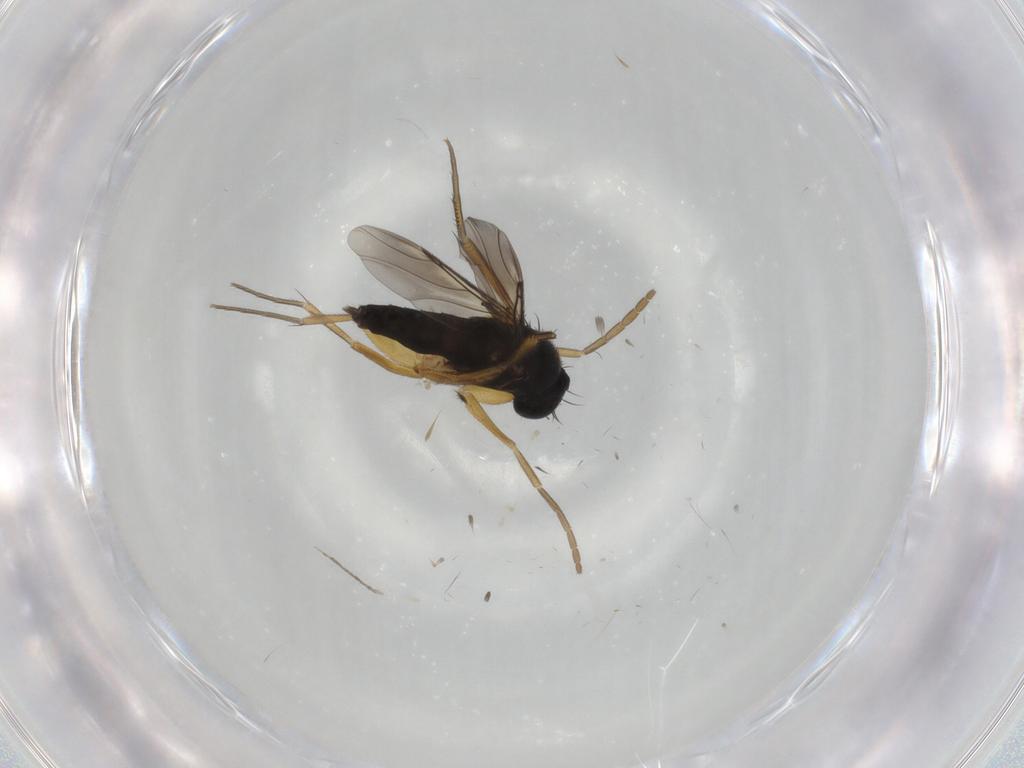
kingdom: Animalia
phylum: Arthropoda
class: Insecta
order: Diptera
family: Sciaridae
